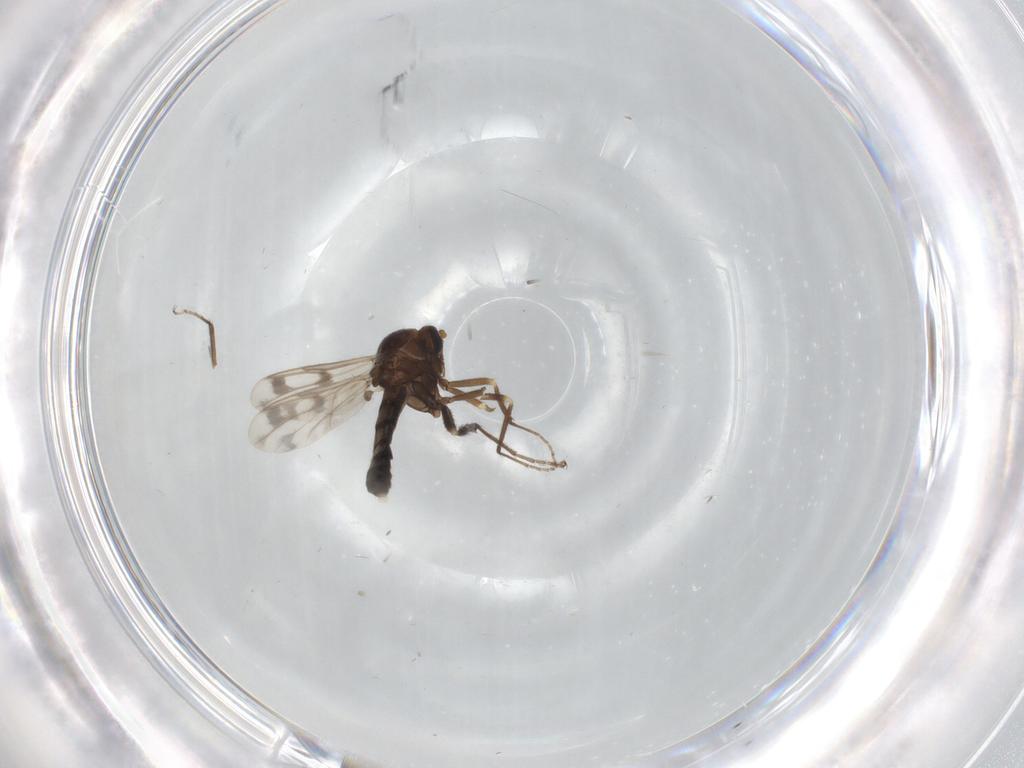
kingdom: Animalia
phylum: Arthropoda
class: Insecta
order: Diptera
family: Ceratopogonidae
